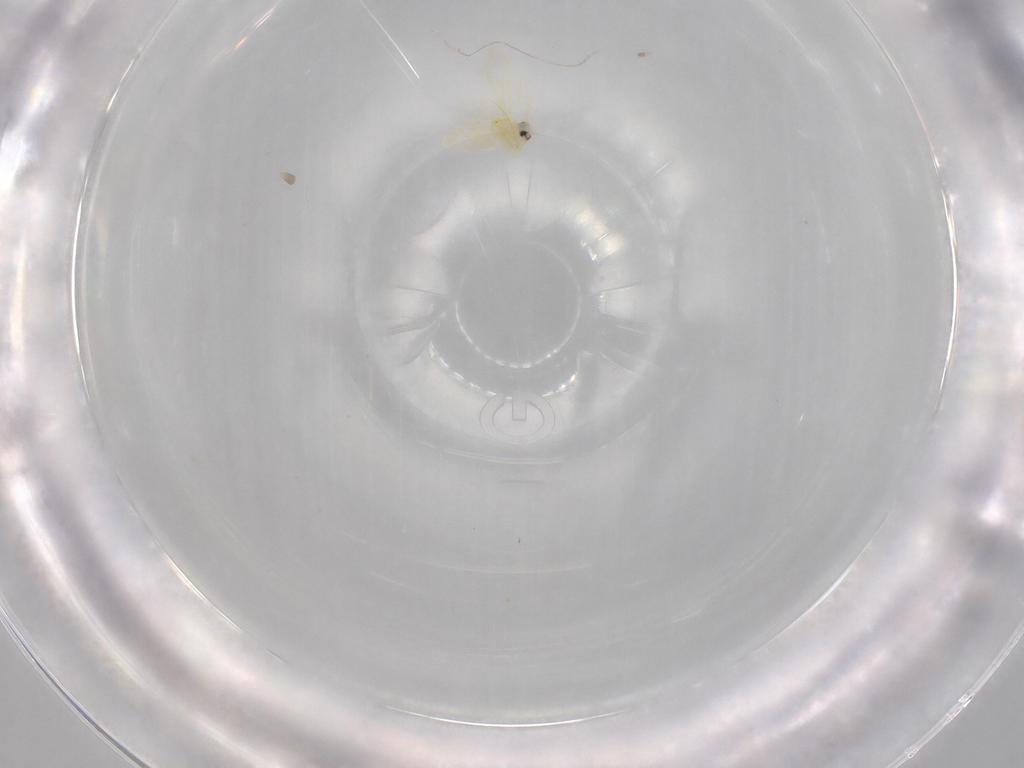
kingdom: Animalia
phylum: Arthropoda
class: Insecta
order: Hemiptera
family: Aleyrodidae
